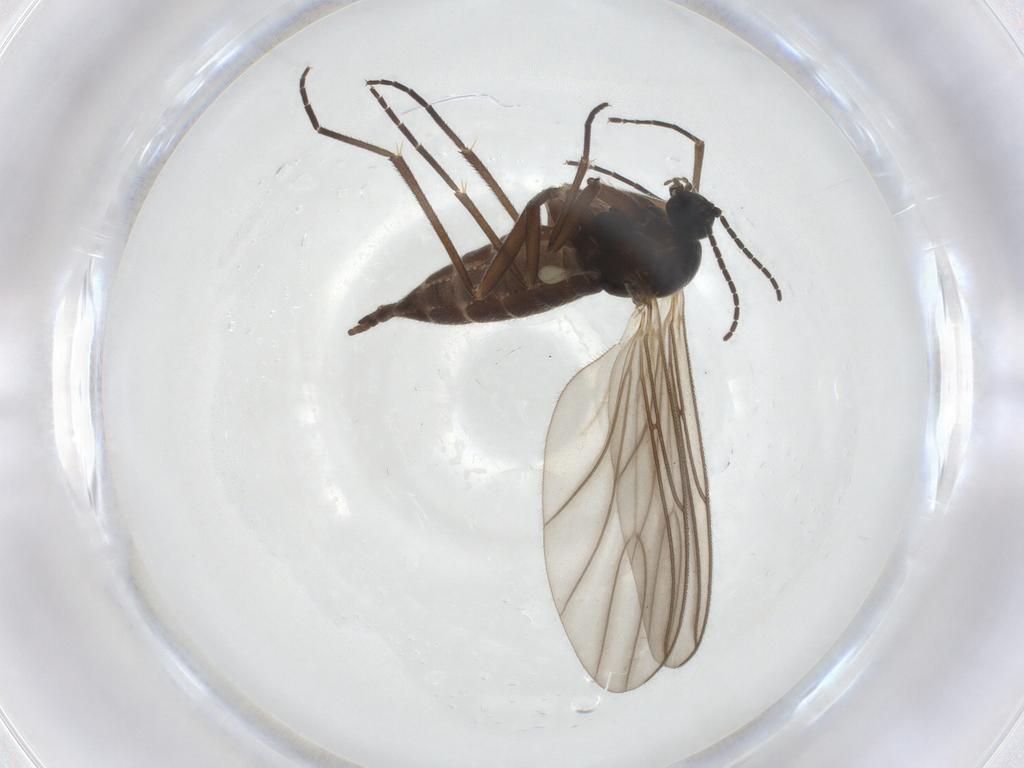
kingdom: Animalia
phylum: Arthropoda
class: Insecta
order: Diptera
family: Sciaridae
